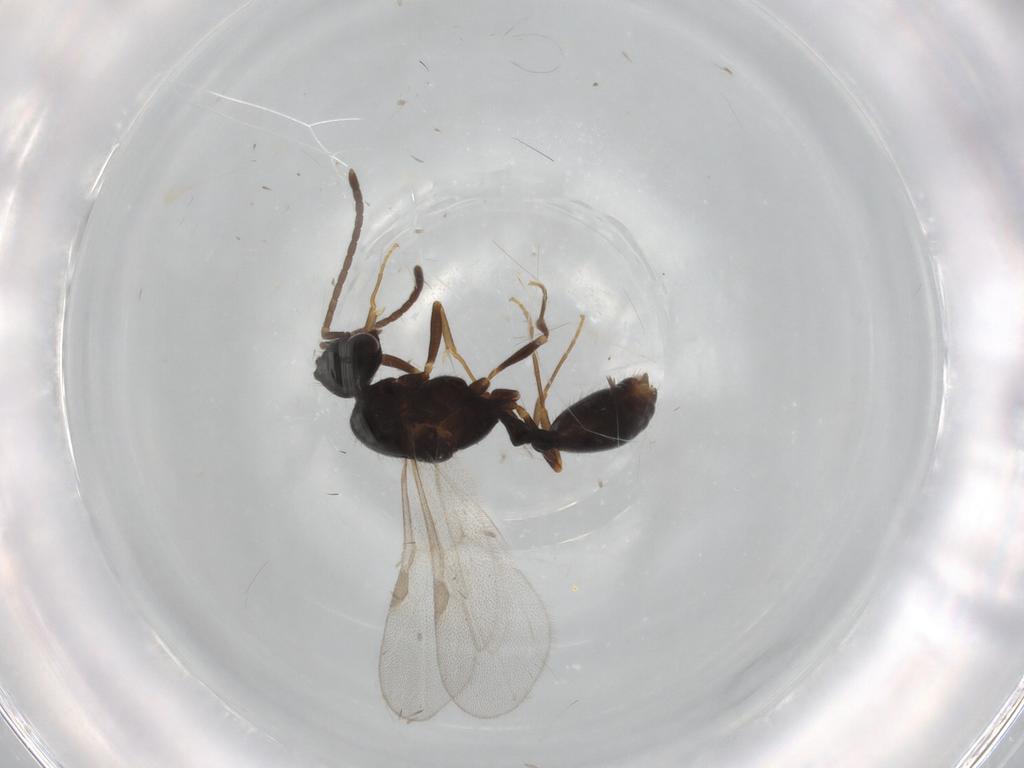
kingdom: Animalia
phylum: Arthropoda
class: Insecta
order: Hymenoptera
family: Formicidae
